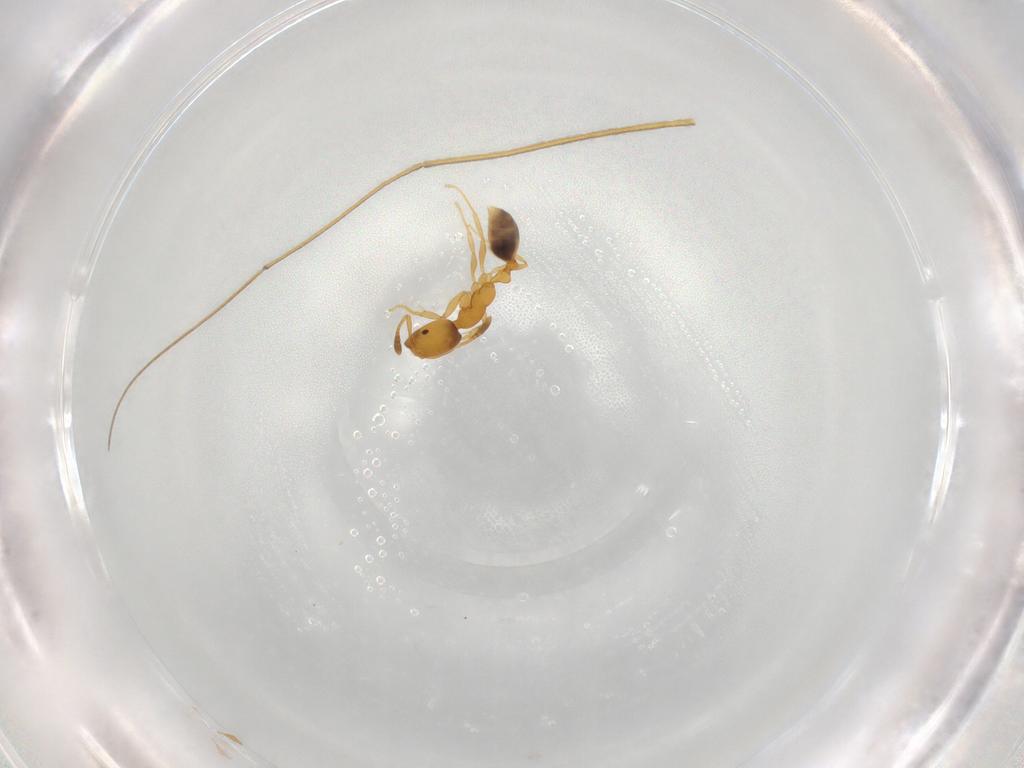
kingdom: Animalia
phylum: Arthropoda
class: Insecta
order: Hymenoptera
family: Formicidae
